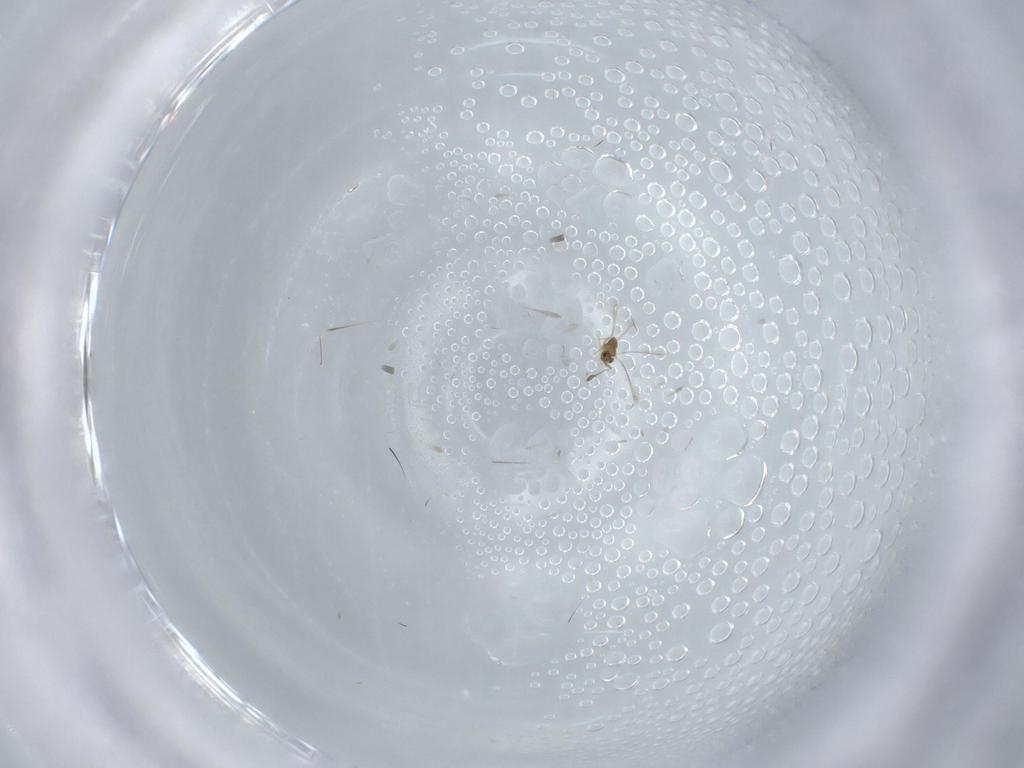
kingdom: Animalia
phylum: Arthropoda
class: Insecta
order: Hymenoptera
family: Mymaridae
